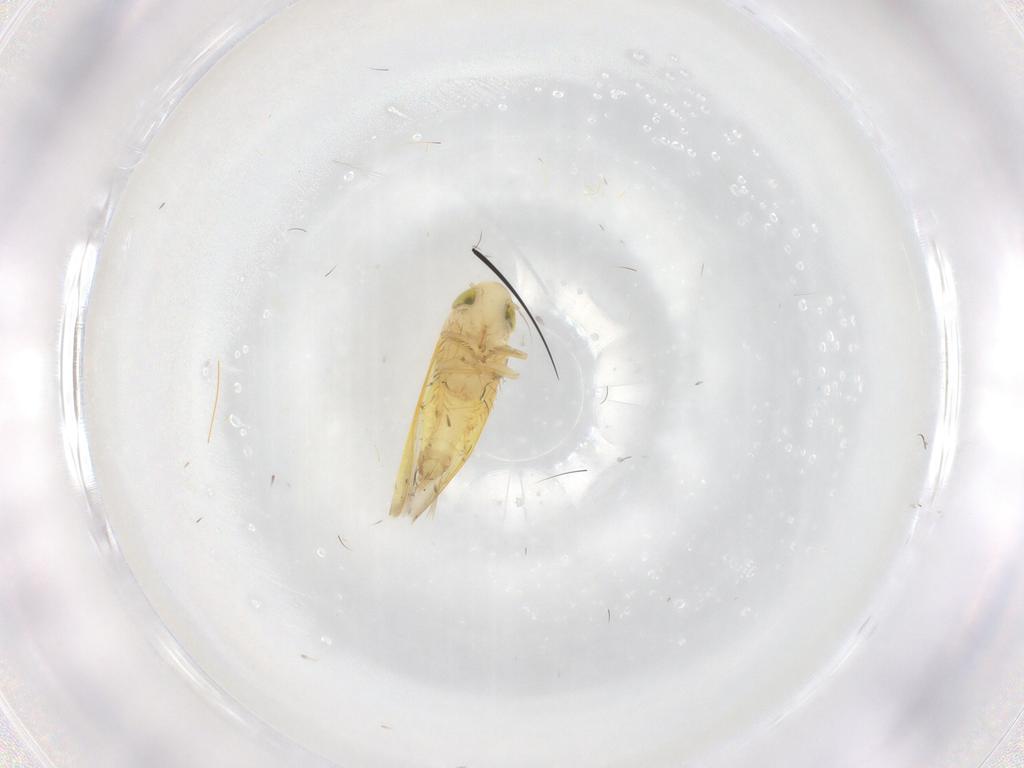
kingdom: Animalia
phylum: Arthropoda
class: Insecta
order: Hemiptera
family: Cicadellidae
